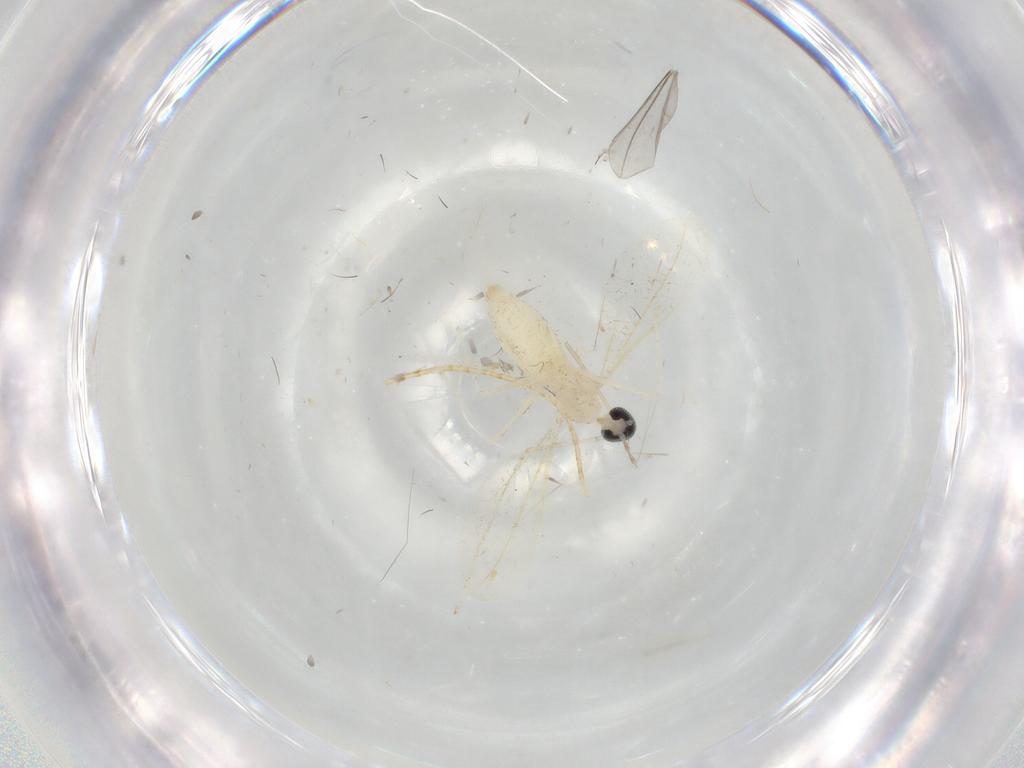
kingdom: Animalia
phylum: Arthropoda
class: Insecta
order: Diptera
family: Cecidomyiidae
